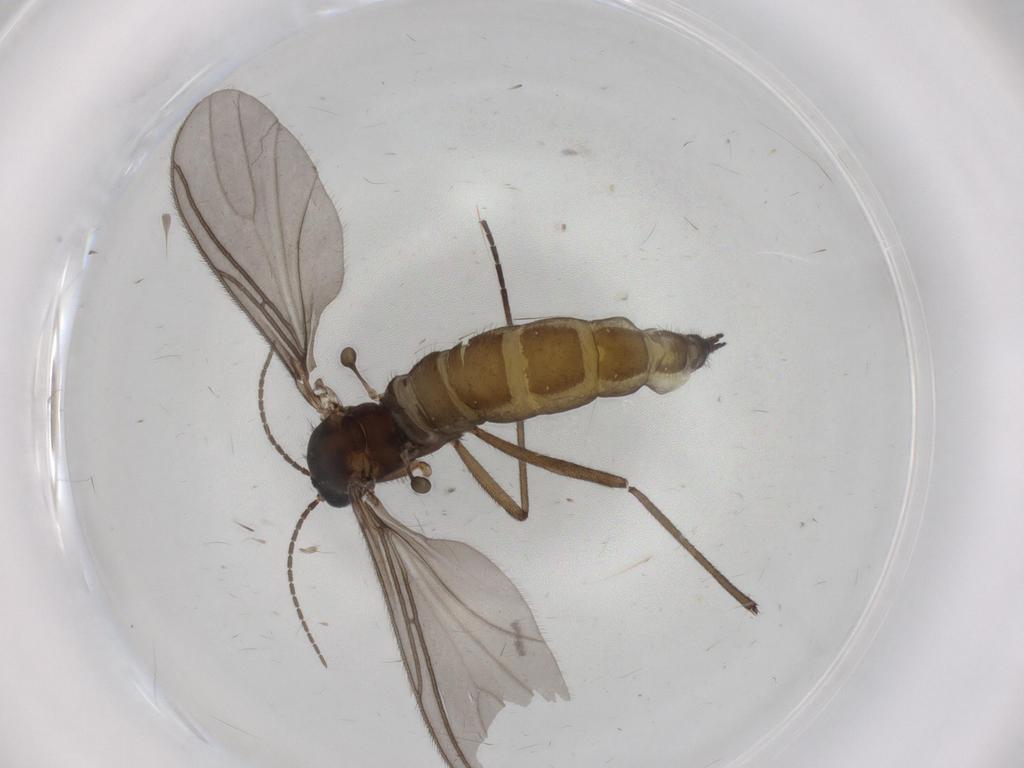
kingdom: Animalia
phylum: Arthropoda
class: Insecta
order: Diptera
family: Sciaridae
